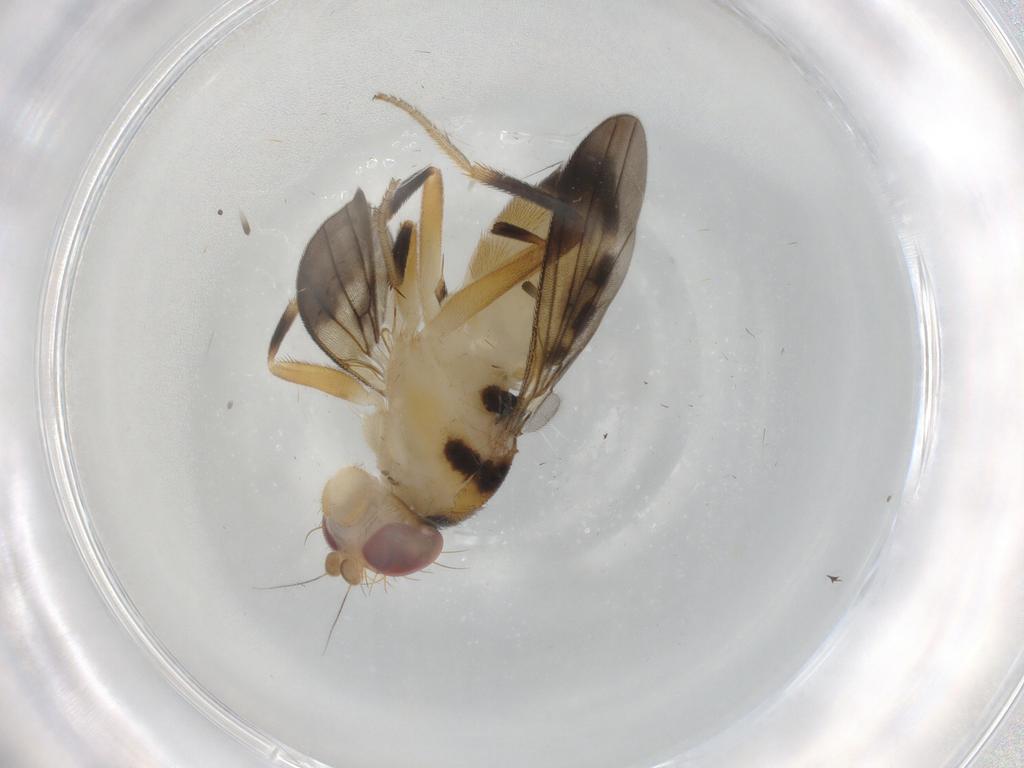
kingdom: Animalia
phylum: Arthropoda
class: Insecta
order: Diptera
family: Clusiidae
